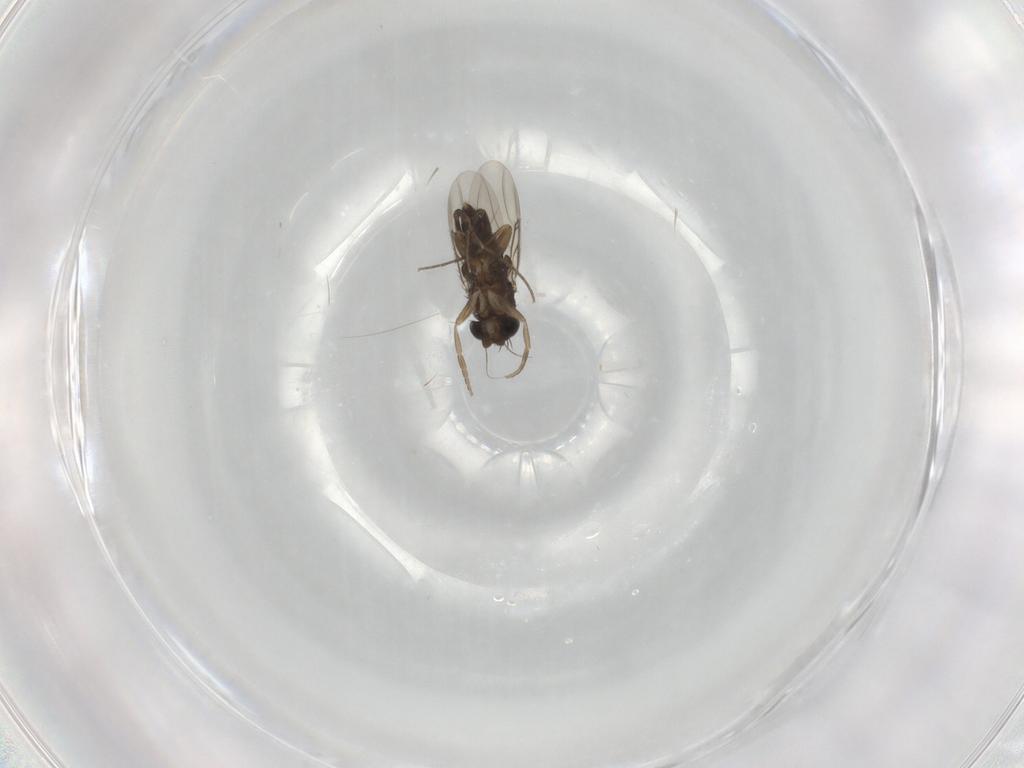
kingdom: Animalia
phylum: Arthropoda
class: Insecta
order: Diptera
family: Phoridae
